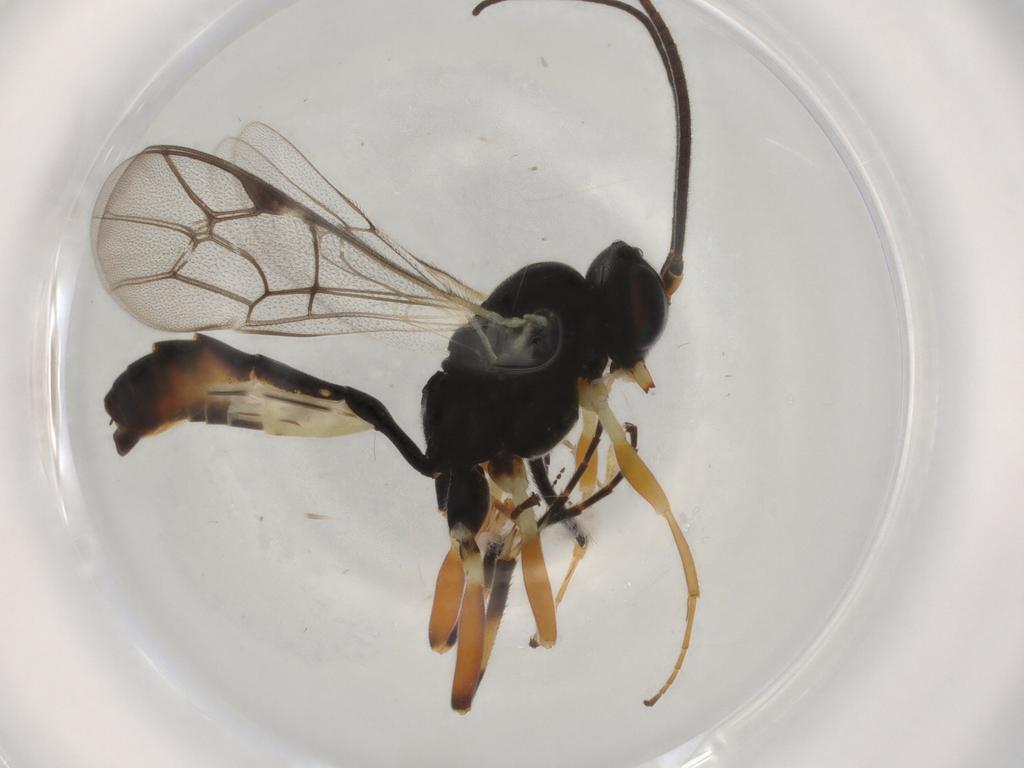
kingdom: Animalia
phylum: Arthropoda
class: Insecta
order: Hymenoptera
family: Ichneumonidae
